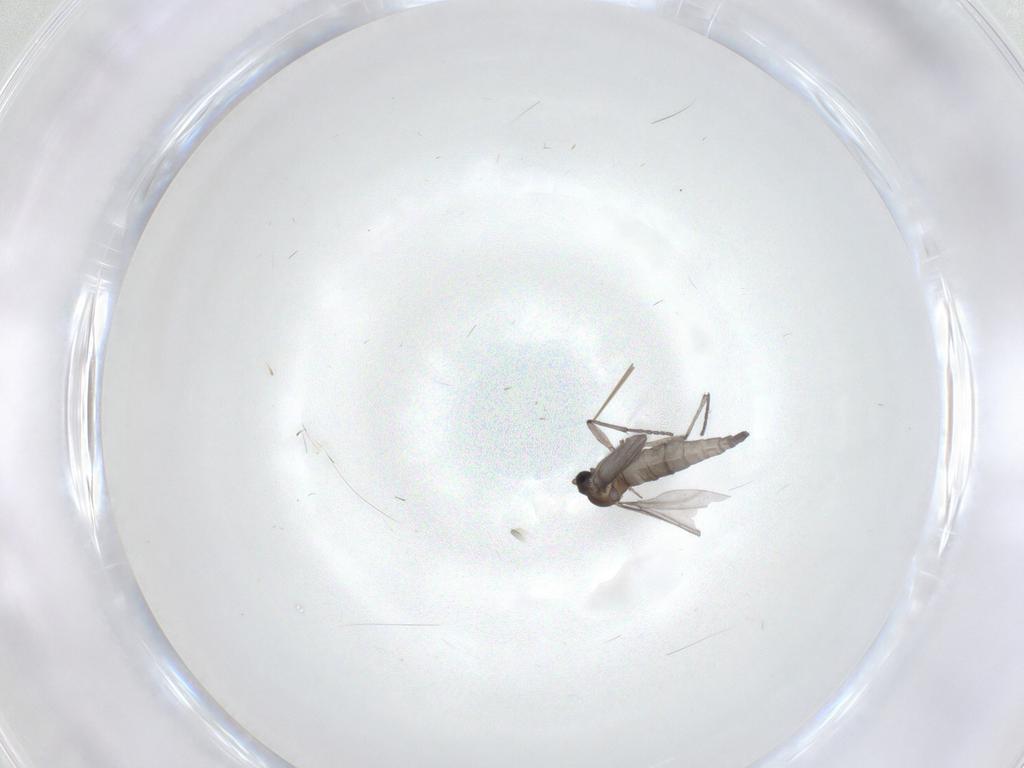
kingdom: Animalia
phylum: Arthropoda
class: Insecta
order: Diptera
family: Sciaridae
